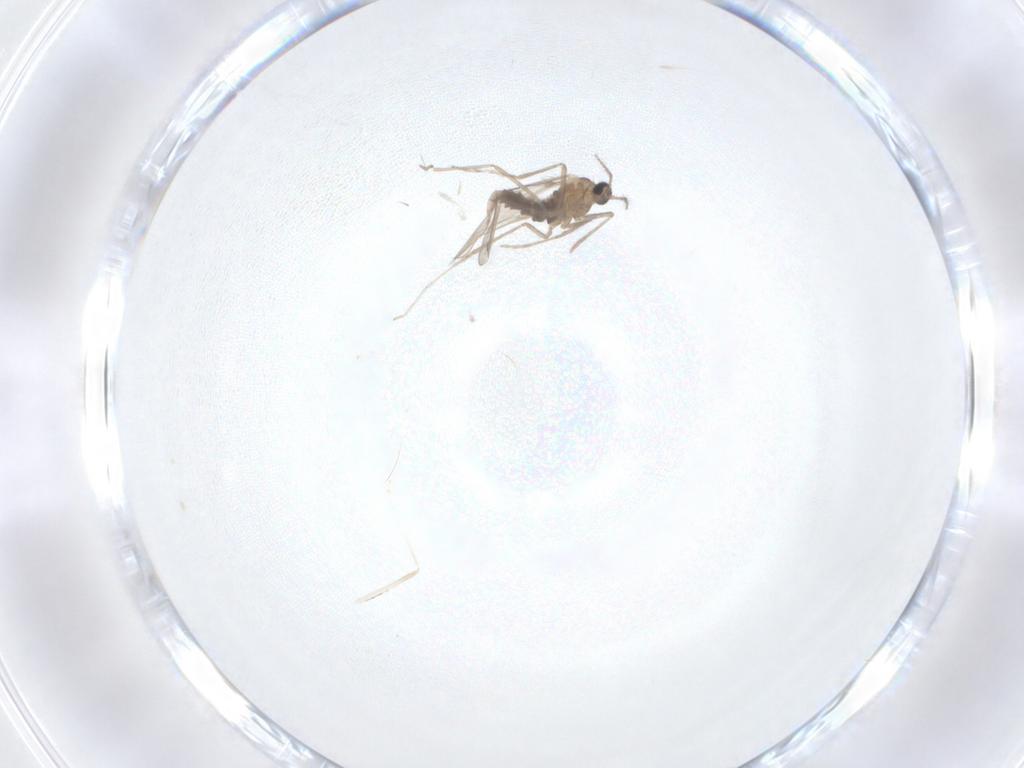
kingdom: Animalia
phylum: Arthropoda
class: Insecta
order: Diptera
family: Cecidomyiidae
